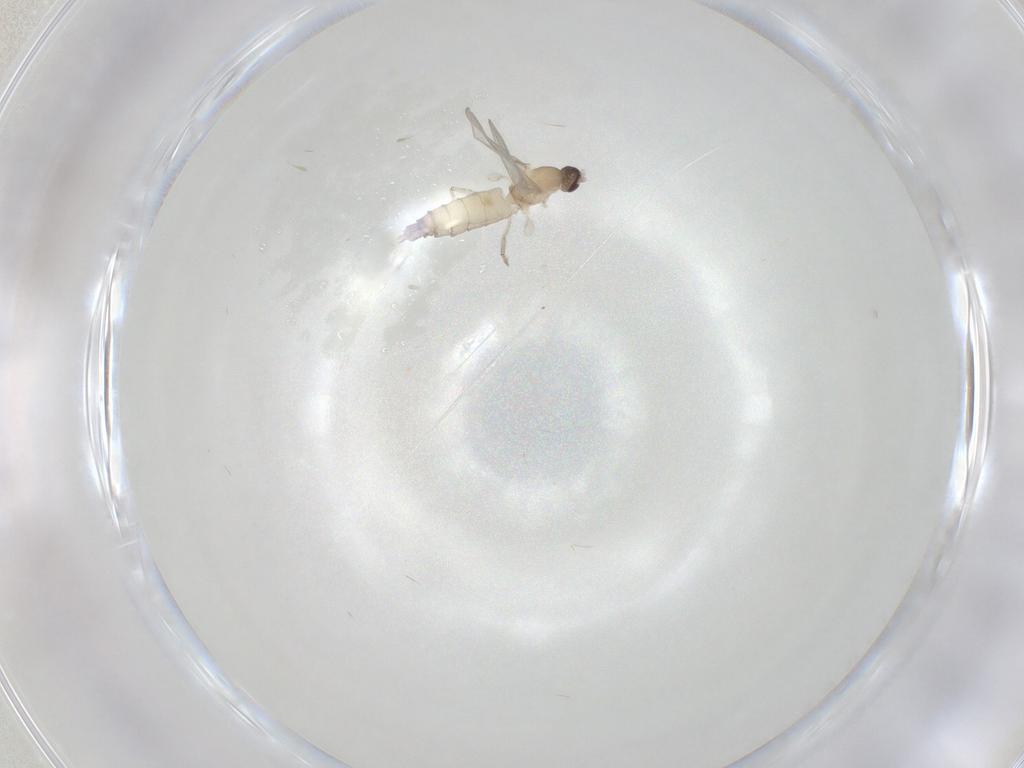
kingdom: Animalia
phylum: Arthropoda
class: Insecta
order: Diptera
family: Cecidomyiidae
